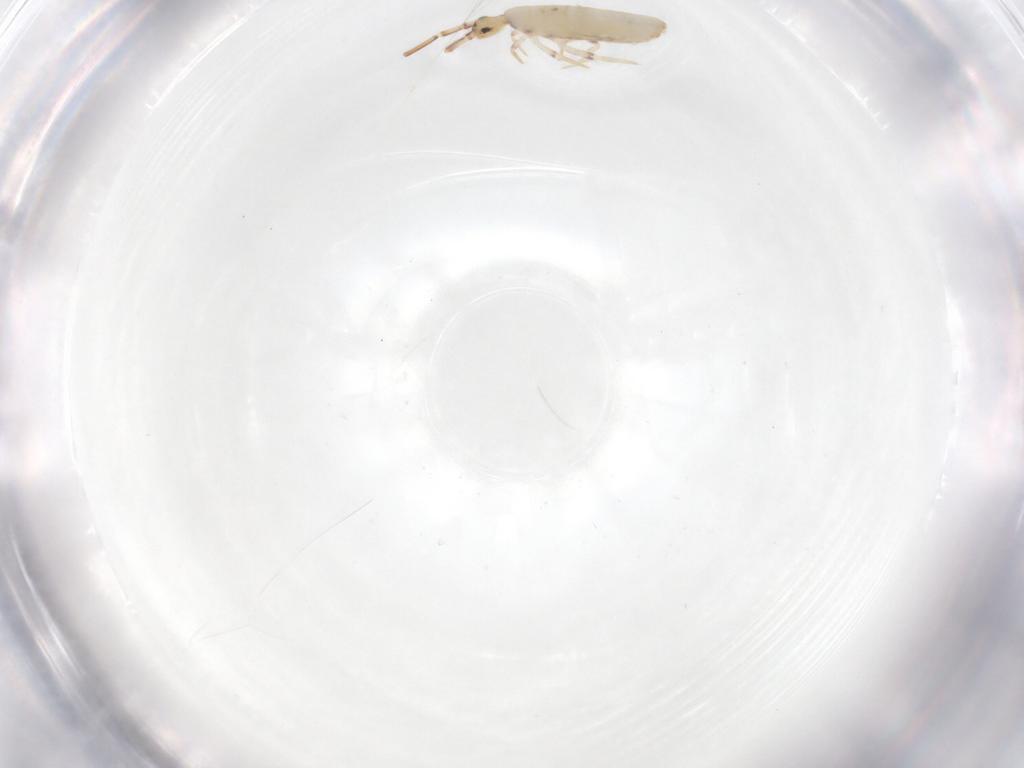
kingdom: Animalia
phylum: Arthropoda
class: Collembola
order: Entomobryomorpha
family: Entomobryidae
